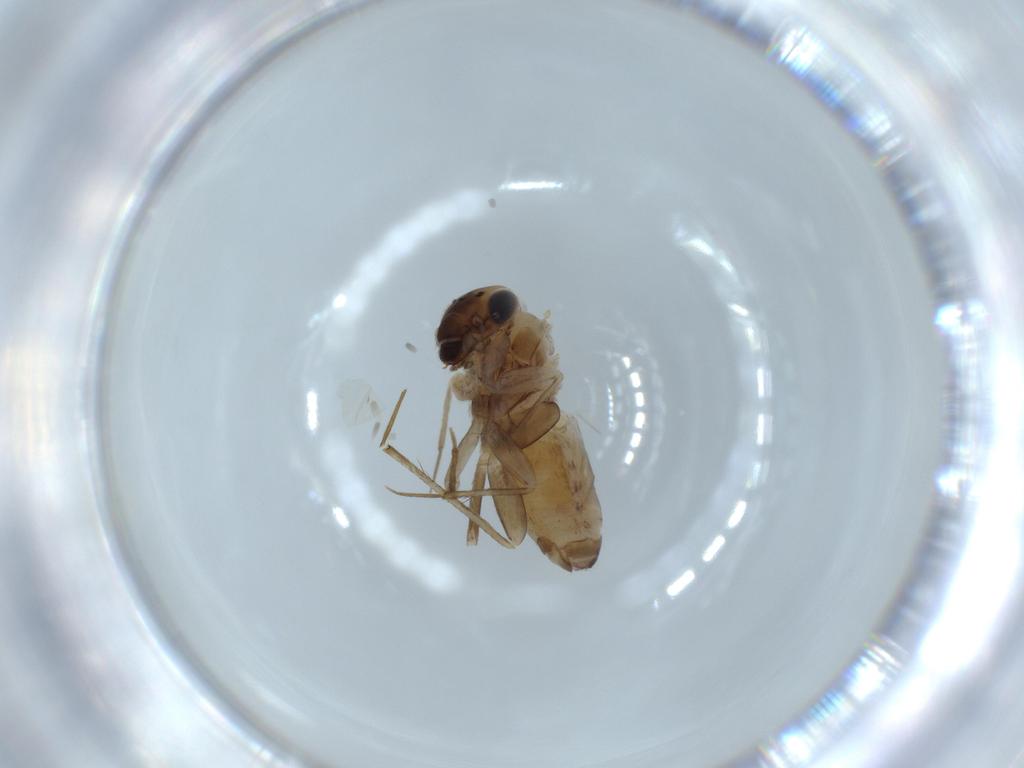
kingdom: Animalia
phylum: Arthropoda
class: Insecta
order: Psocodea
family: Lepidopsocidae
